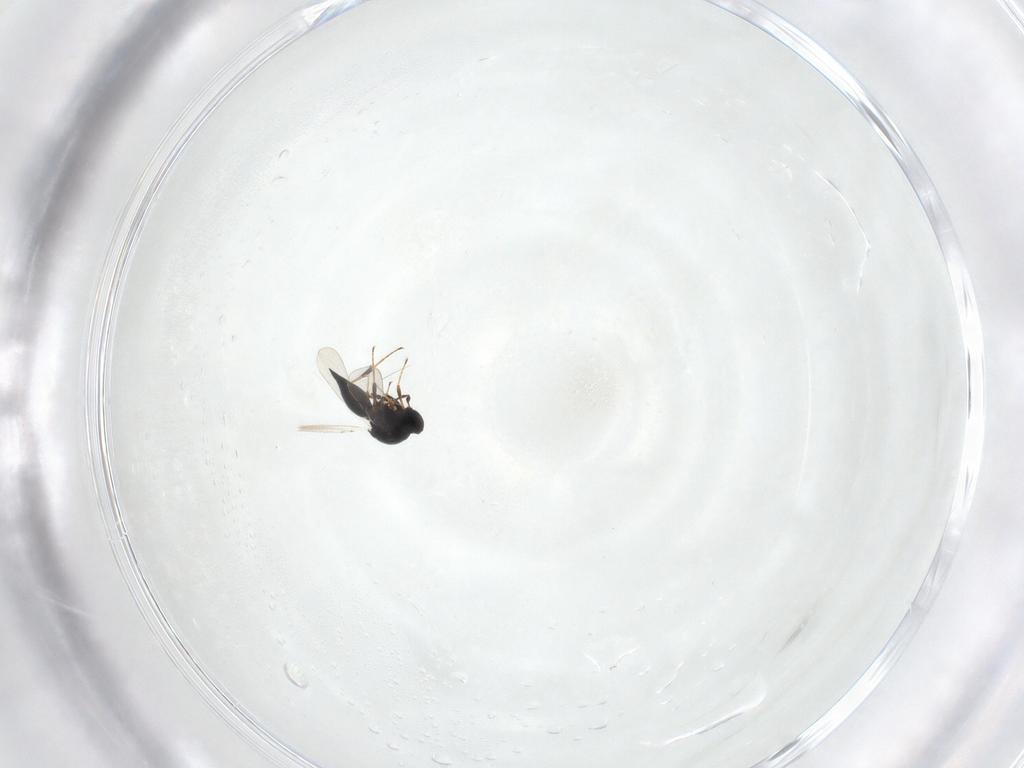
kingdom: Animalia
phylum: Arthropoda
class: Insecta
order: Hymenoptera
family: Platygastridae
